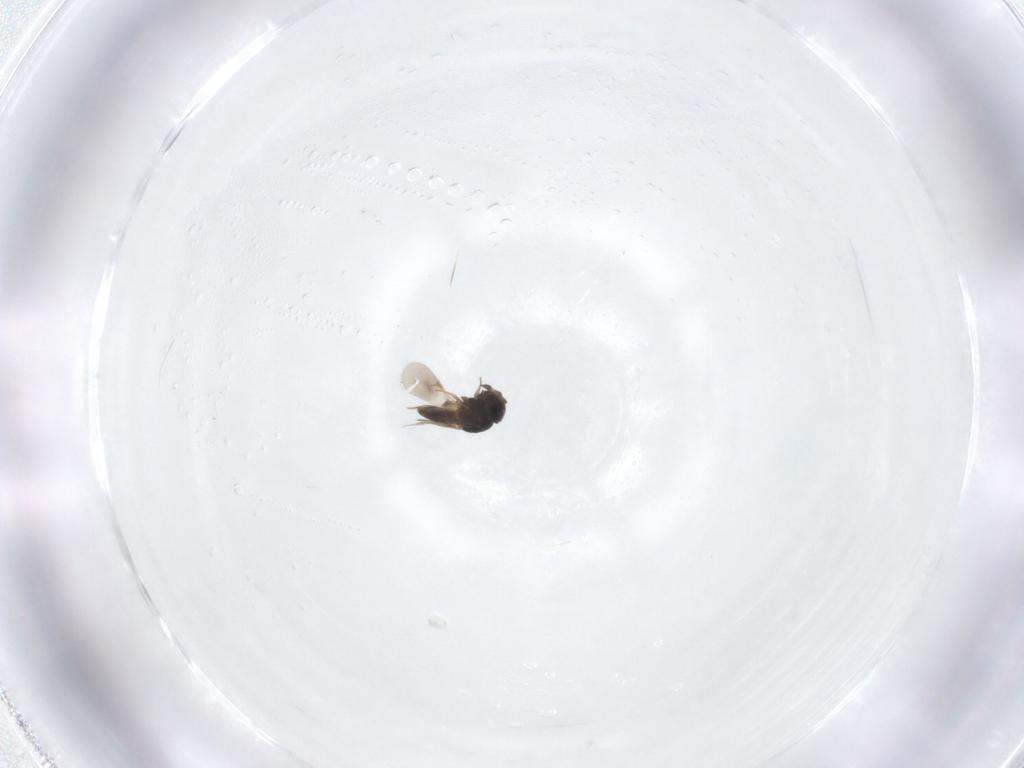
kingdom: Animalia
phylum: Arthropoda
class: Insecta
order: Hymenoptera
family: Scelionidae
